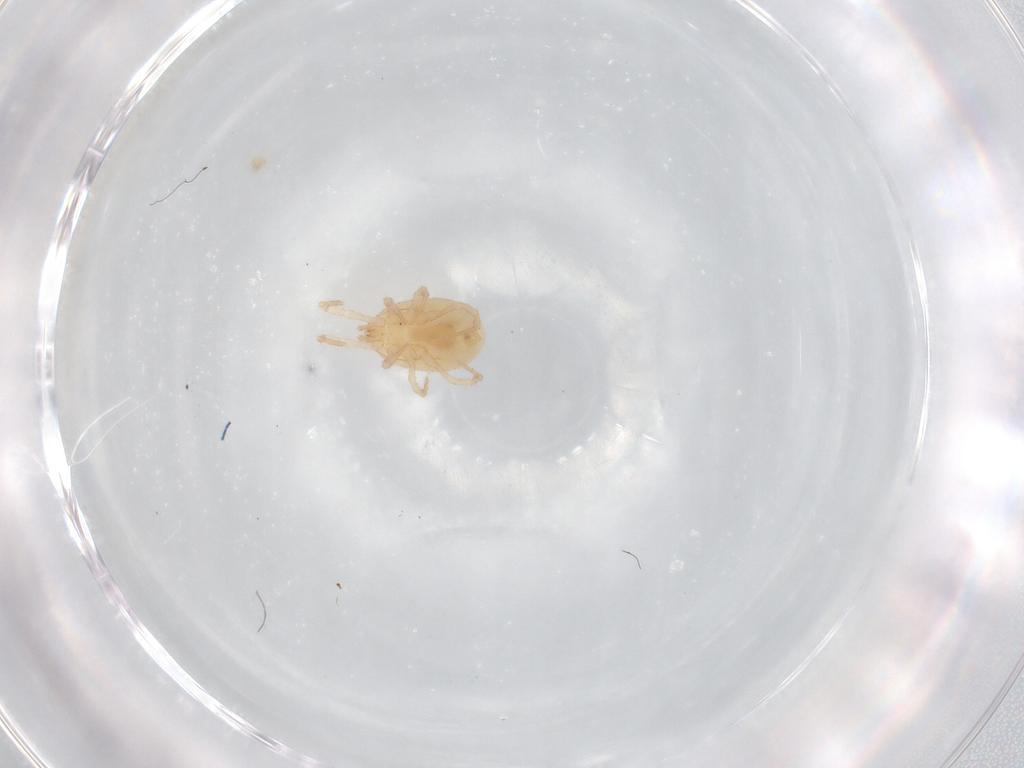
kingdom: Animalia
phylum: Arthropoda
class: Arachnida
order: Mesostigmata
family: Parasitidae
